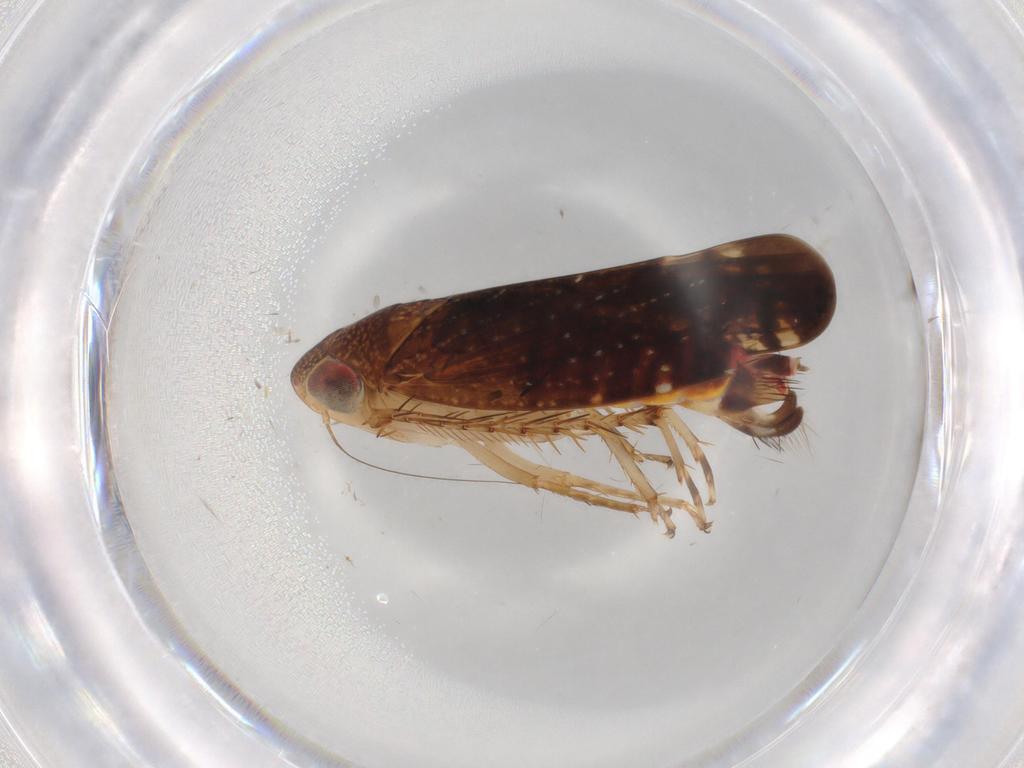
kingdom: Animalia
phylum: Arthropoda
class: Insecta
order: Hemiptera
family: Cicadellidae
